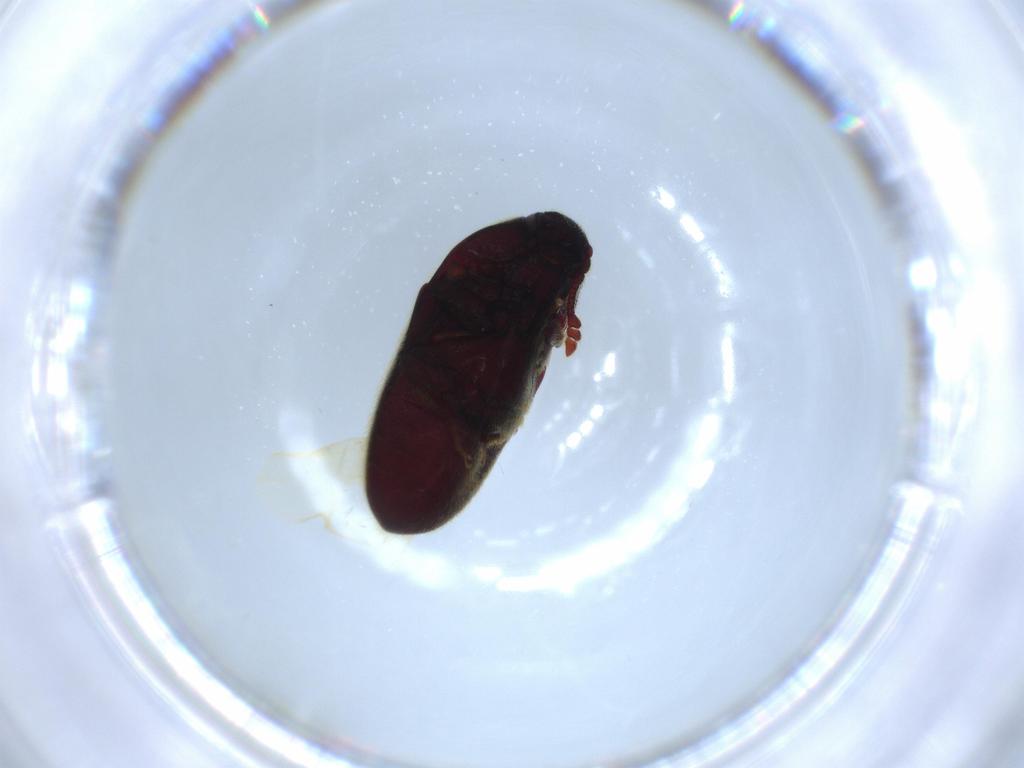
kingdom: Animalia
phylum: Arthropoda
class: Insecta
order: Coleoptera
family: Throscidae
